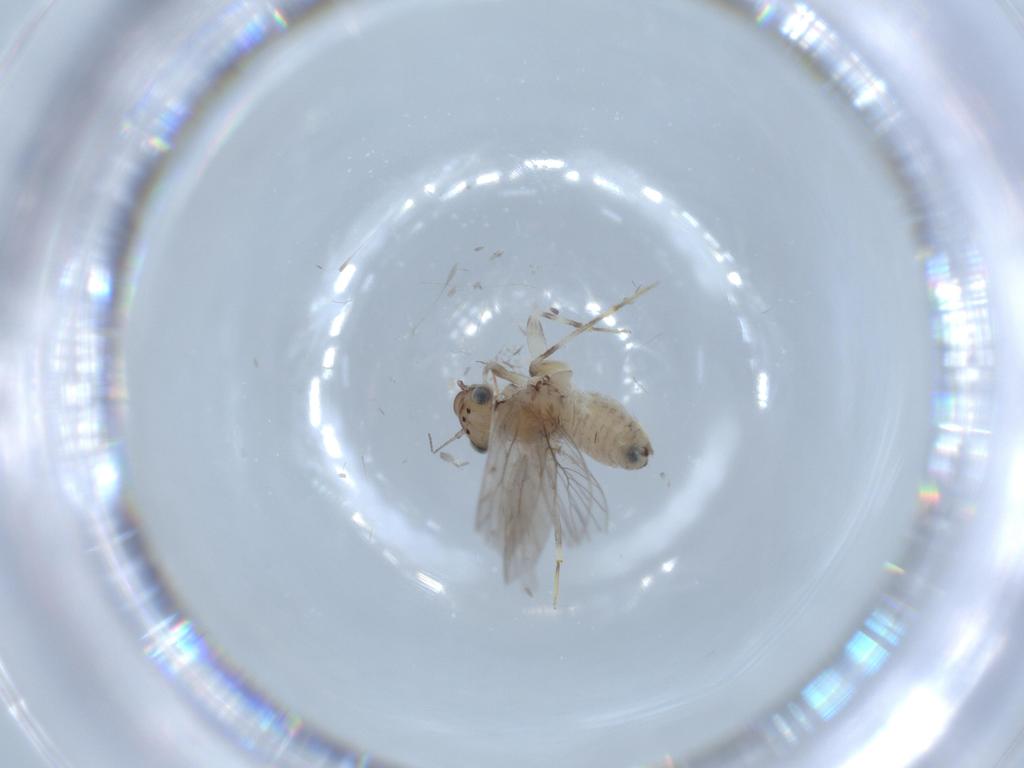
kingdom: Animalia
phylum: Arthropoda
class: Insecta
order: Psocodea
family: Lepidopsocidae
